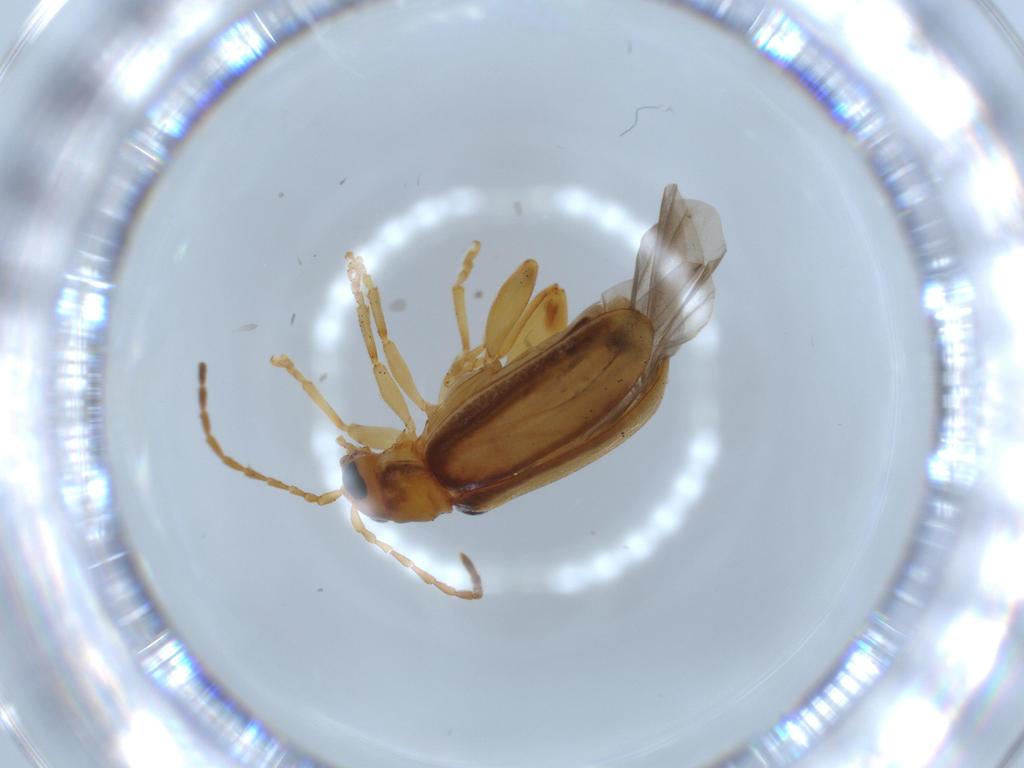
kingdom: Animalia
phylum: Arthropoda
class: Insecta
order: Coleoptera
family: Chrysomelidae
